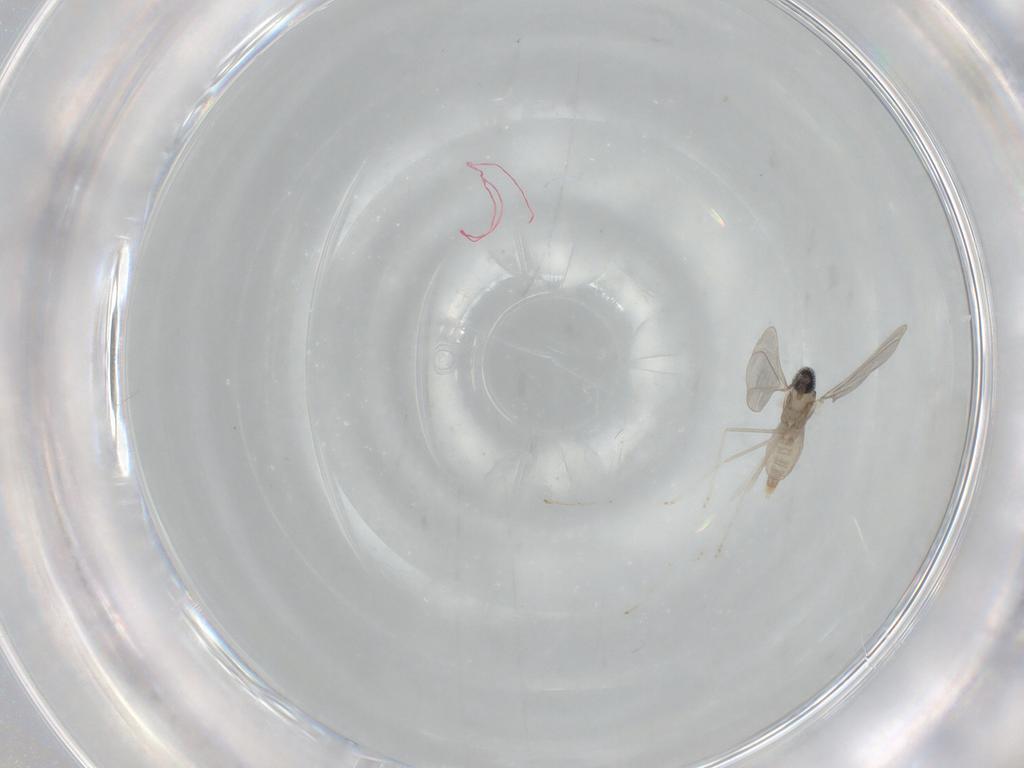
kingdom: Animalia
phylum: Arthropoda
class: Insecta
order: Diptera
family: Cecidomyiidae
